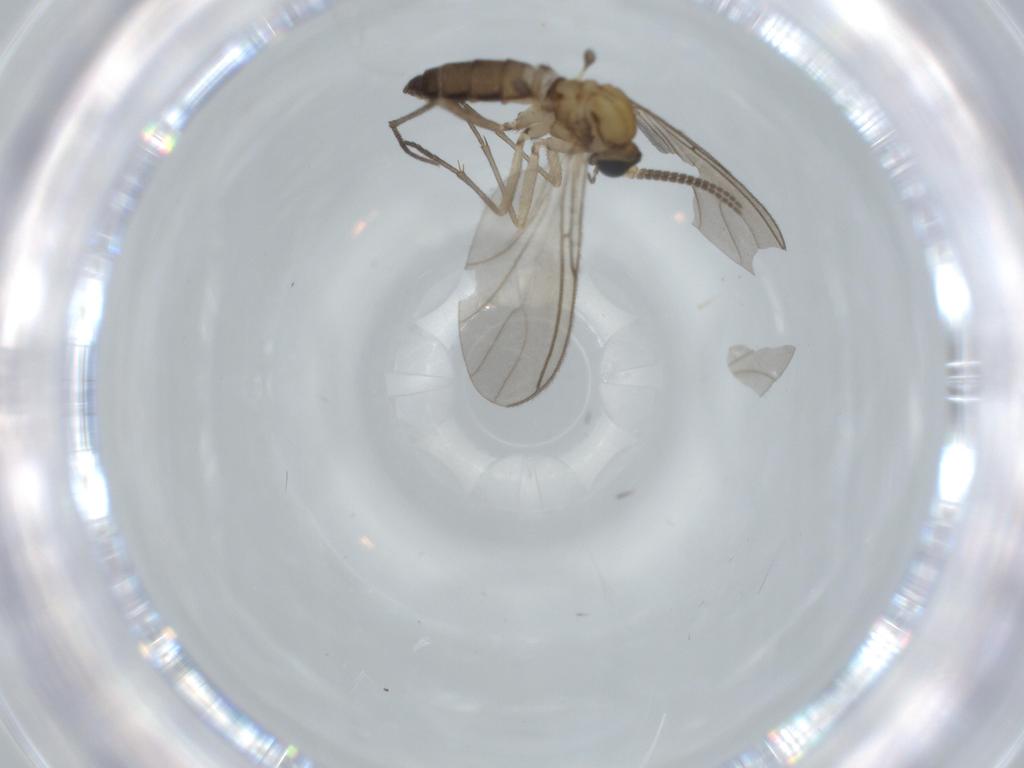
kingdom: Animalia
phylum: Arthropoda
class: Insecta
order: Diptera
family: Sciaridae
